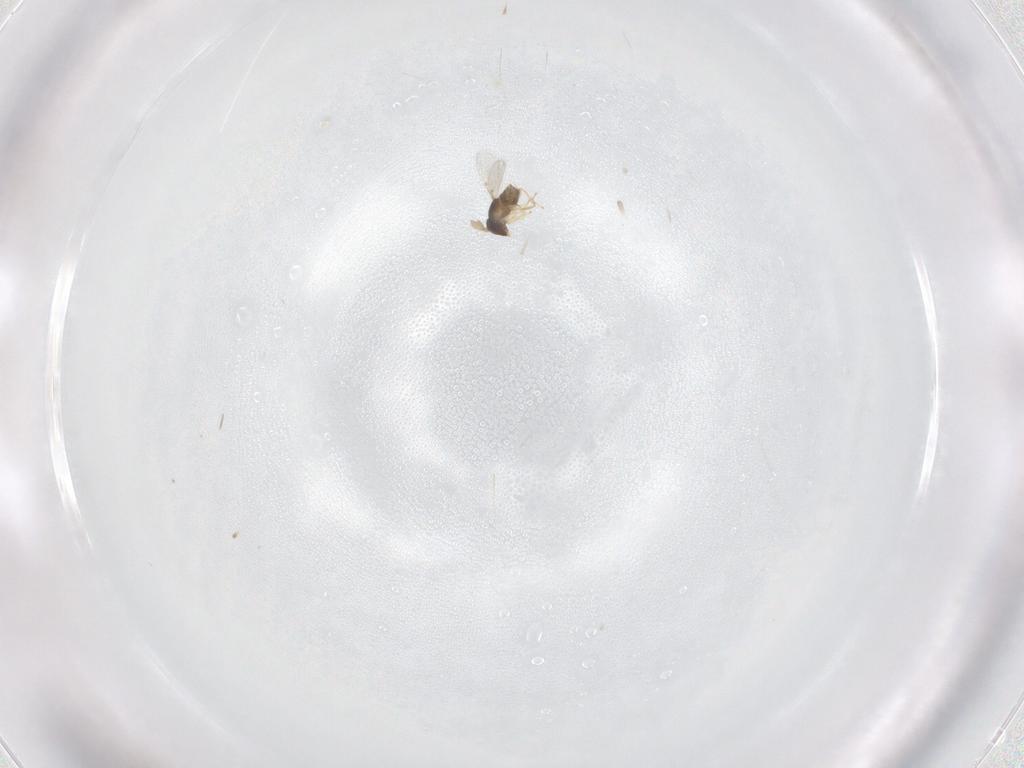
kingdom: Animalia
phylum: Arthropoda
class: Insecta
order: Hymenoptera
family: Encyrtidae
